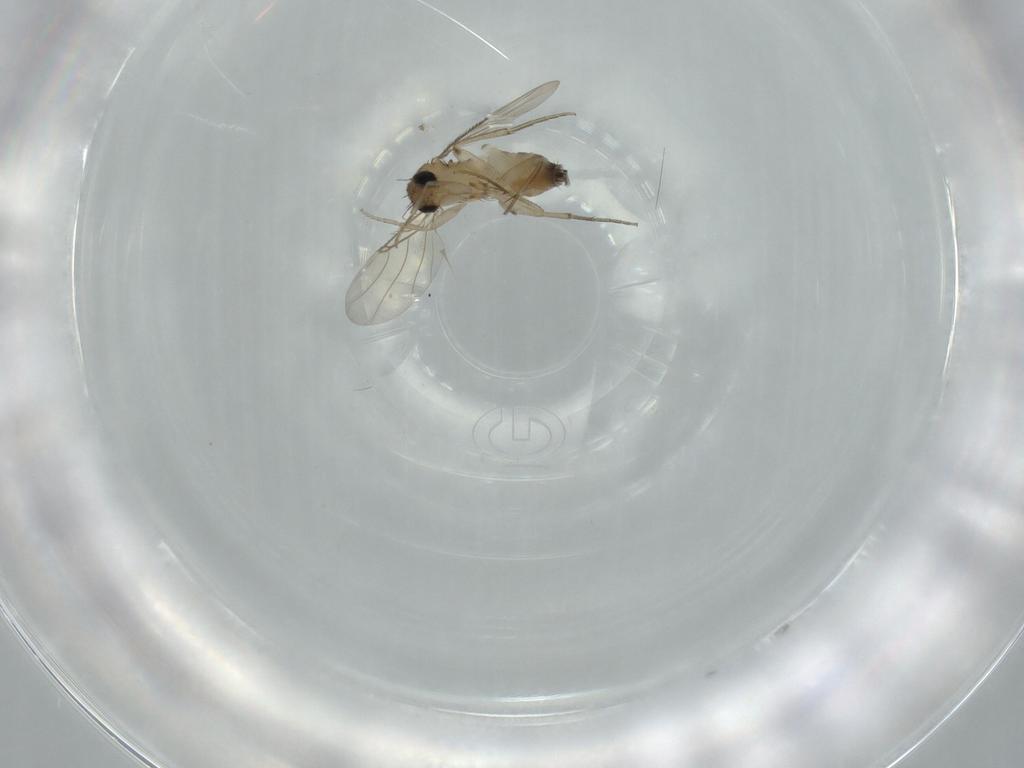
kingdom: Animalia
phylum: Arthropoda
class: Insecta
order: Diptera
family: Phoridae
